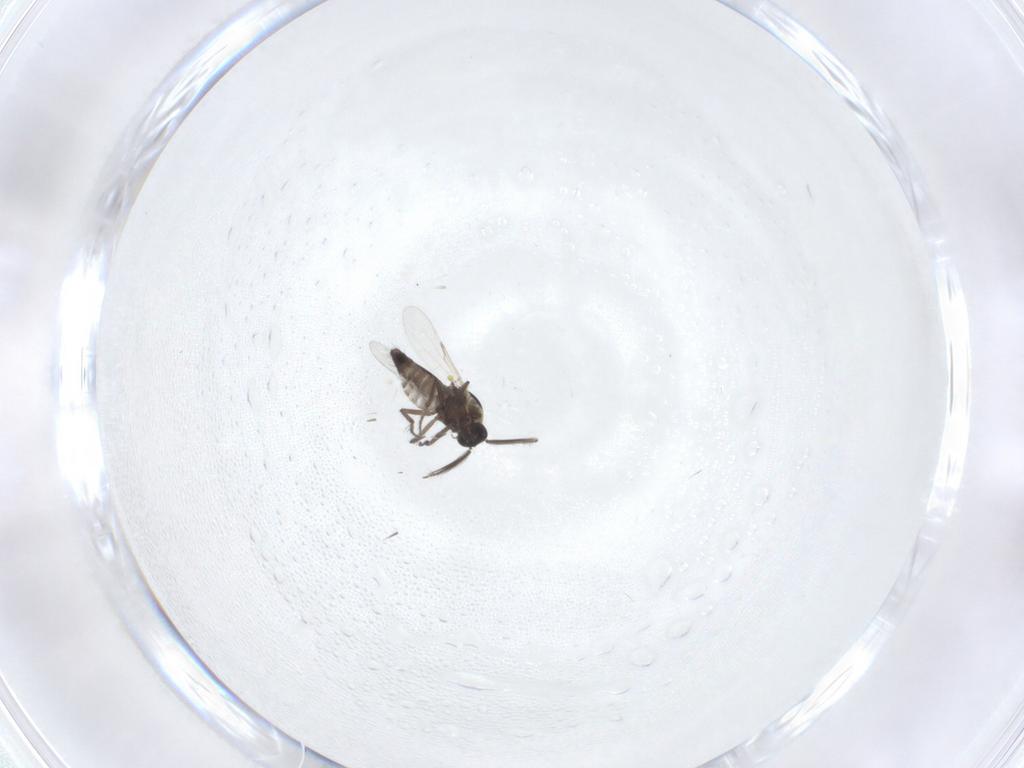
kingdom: Animalia
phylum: Arthropoda
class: Insecta
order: Diptera
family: Ceratopogonidae
